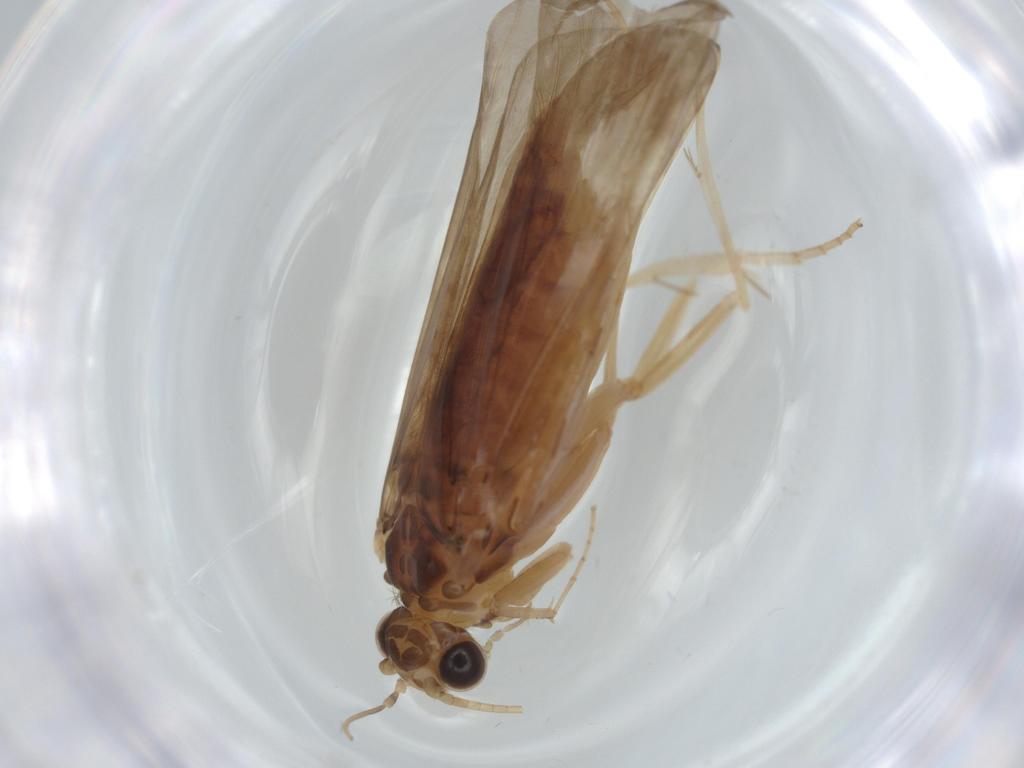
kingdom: Animalia
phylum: Arthropoda
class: Insecta
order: Trichoptera
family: Ecnomidae
